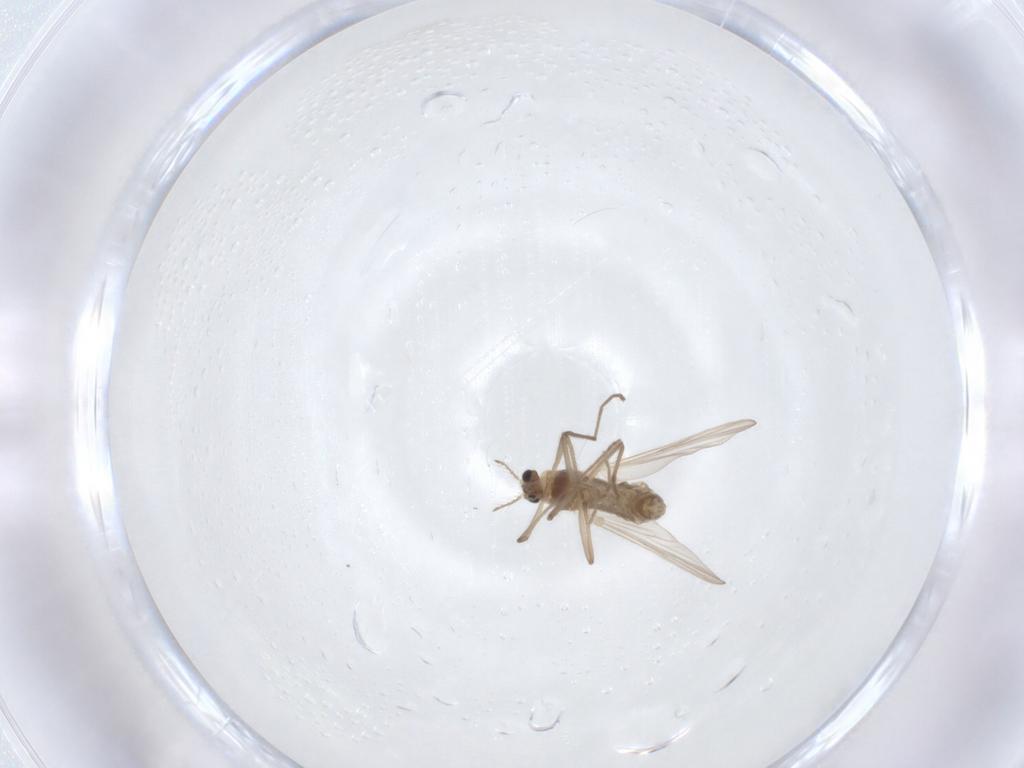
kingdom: Animalia
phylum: Arthropoda
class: Insecta
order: Diptera
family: Chironomidae
